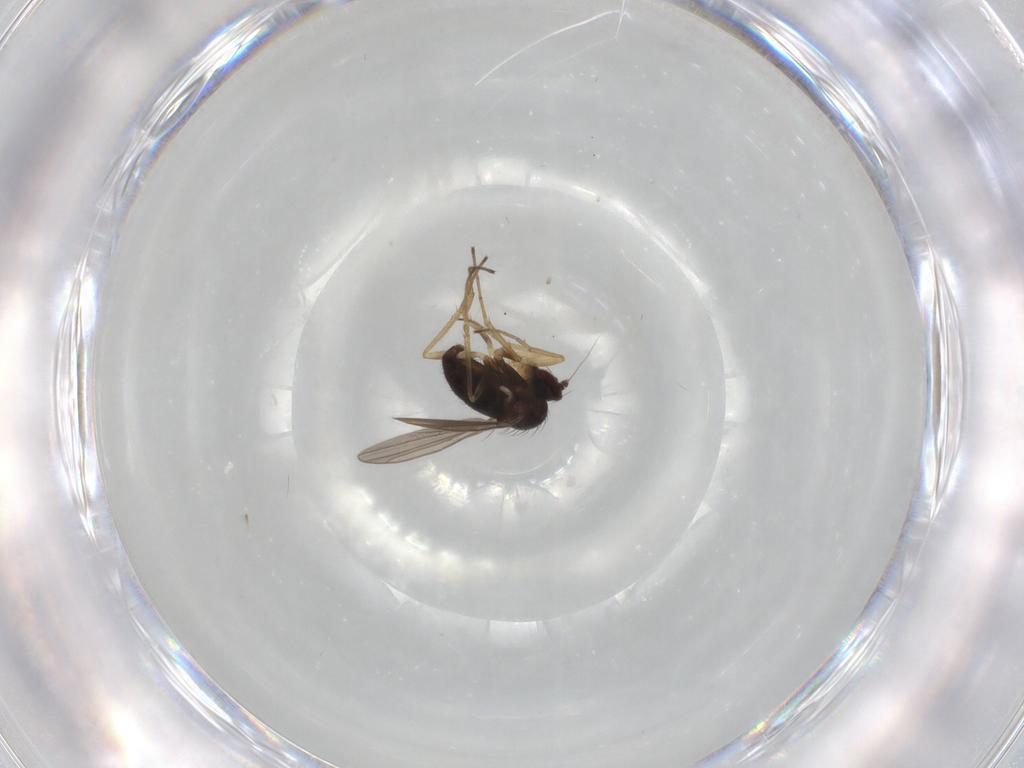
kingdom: Animalia
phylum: Arthropoda
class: Insecta
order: Diptera
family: Dolichopodidae
